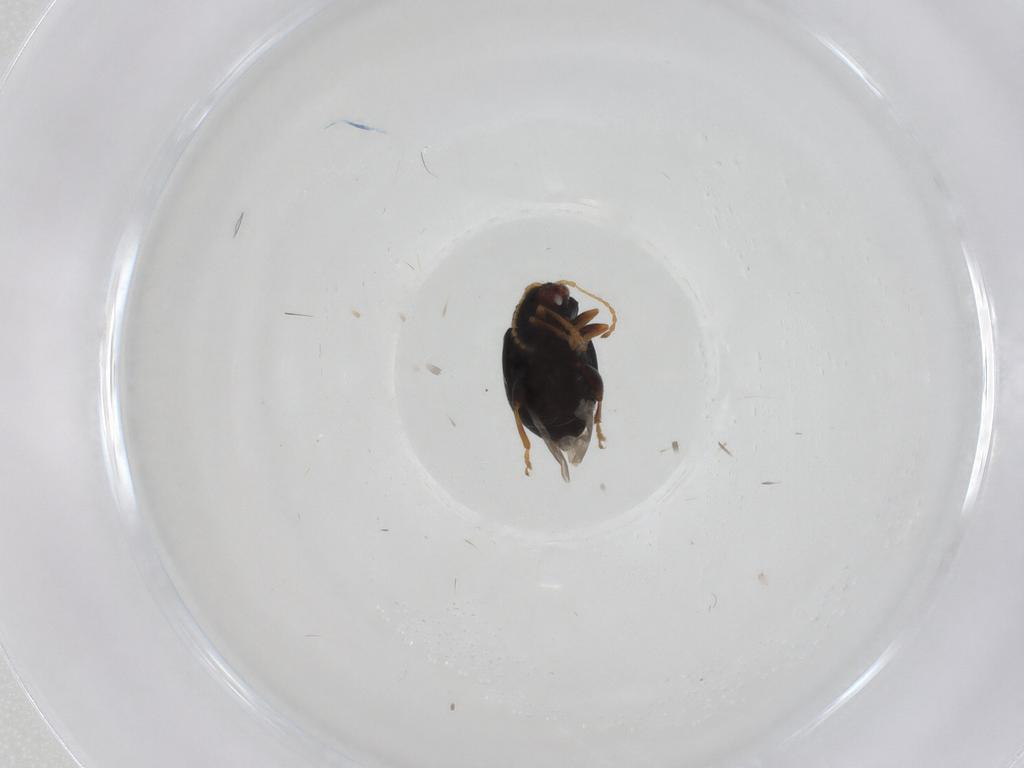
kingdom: Animalia
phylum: Arthropoda
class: Insecta
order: Coleoptera
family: Chrysomelidae
